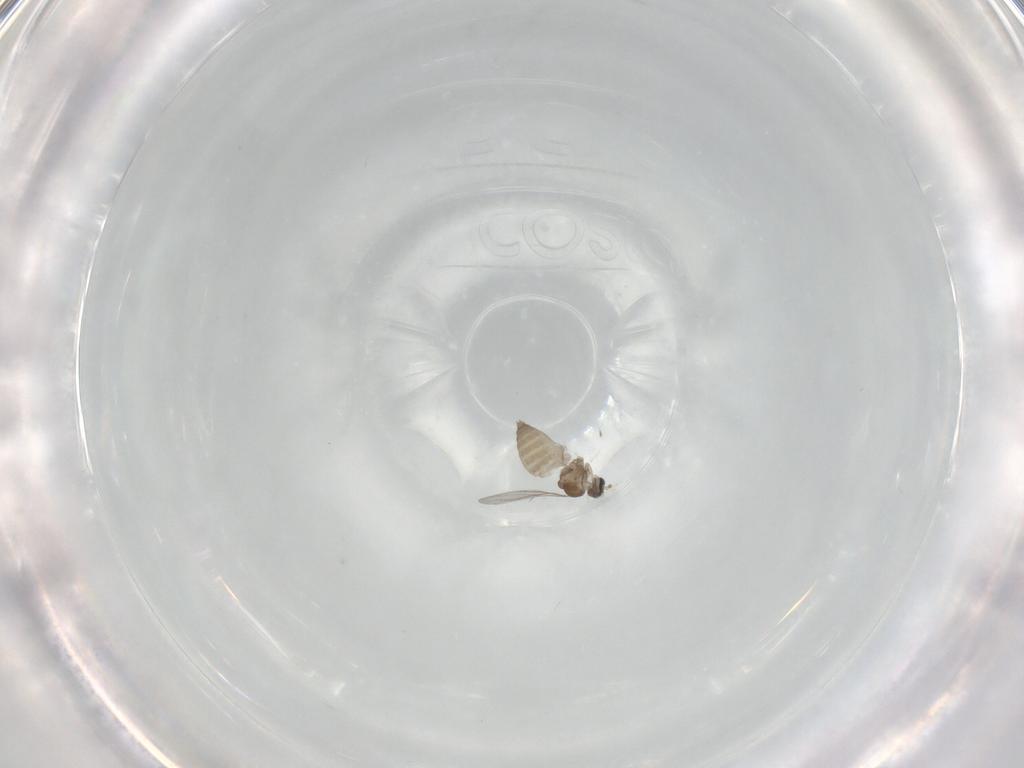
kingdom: Animalia
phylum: Arthropoda
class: Insecta
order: Diptera
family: Cecidomyiidae
